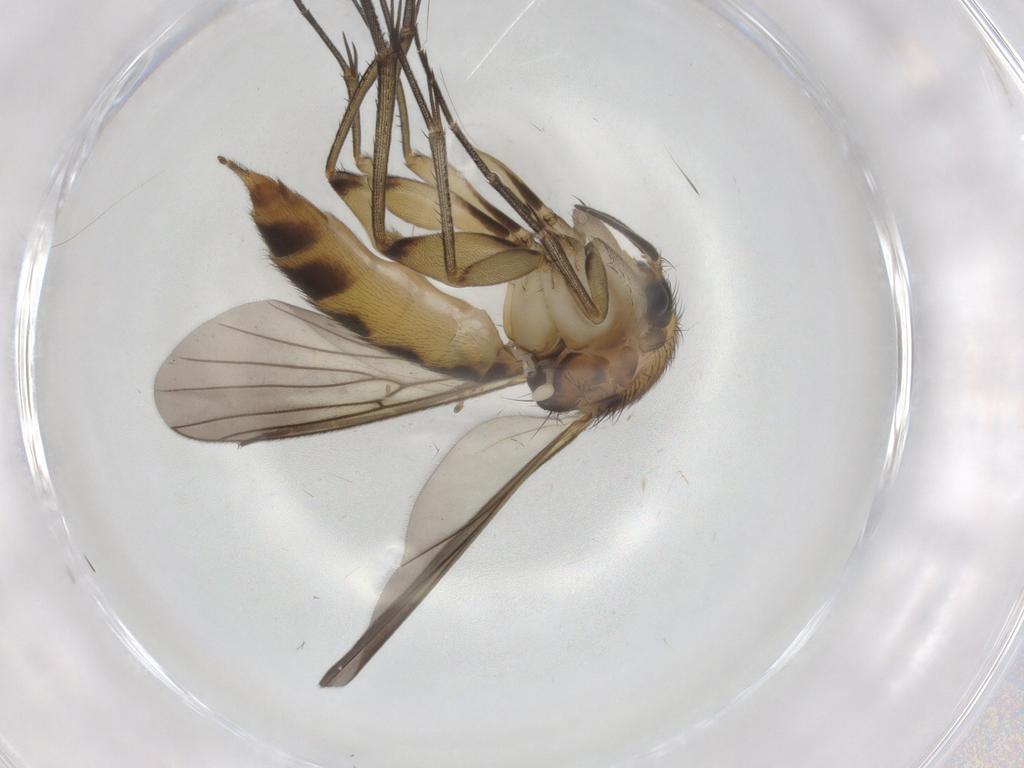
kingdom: Animalia
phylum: Arthropoda
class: Insecta
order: Diptera
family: Mycetophilidae
